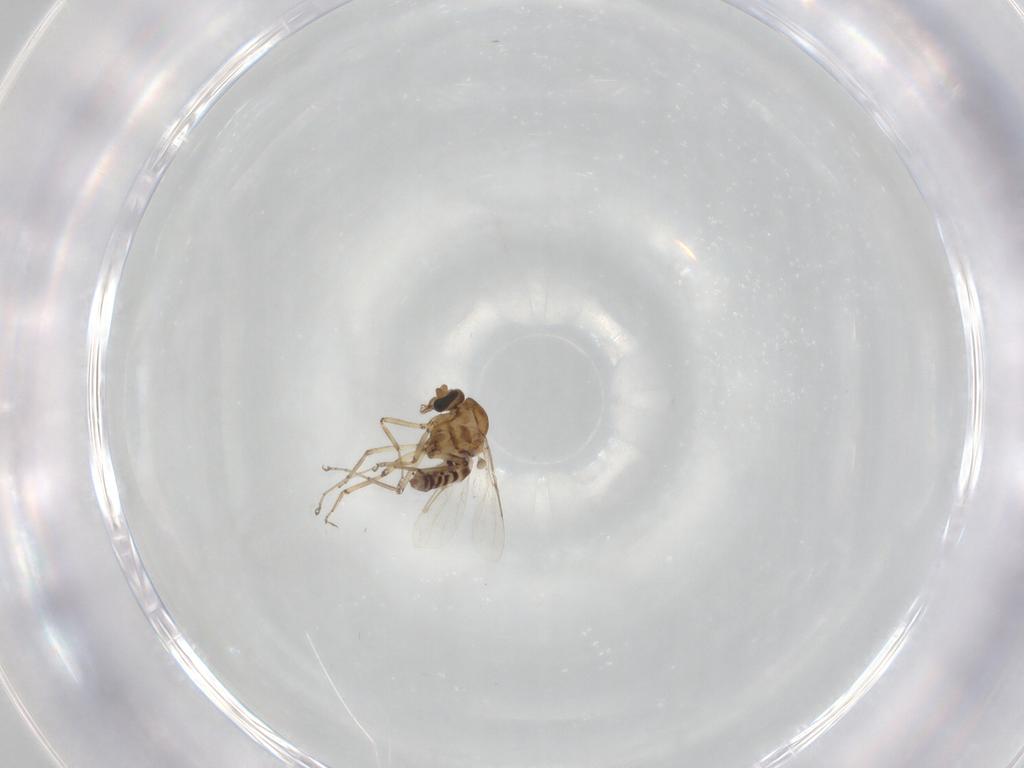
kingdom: Animalia
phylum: Arthropoda
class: Insecta
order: Diptera
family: Ceratopogonidae
